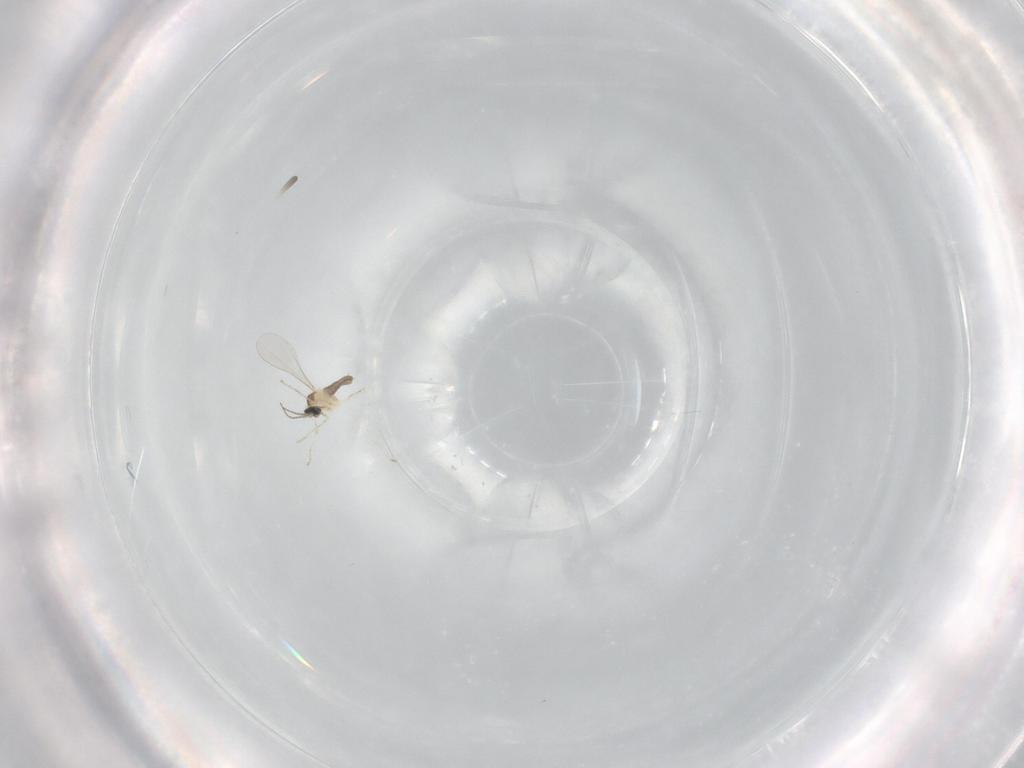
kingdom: Animalia
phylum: Arthropoda
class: Insecta
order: Diptera
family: Cecidomyiidae
